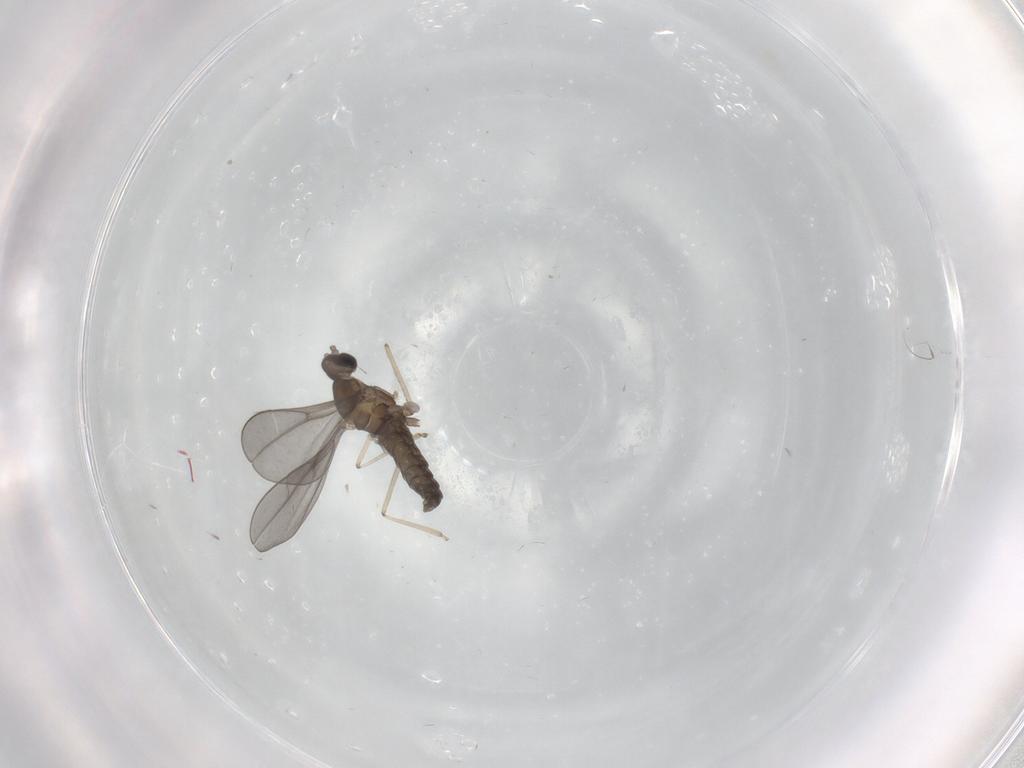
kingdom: Animalia
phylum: Arthropoda
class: Insecta
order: Diptera
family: Cecidomyiidae
